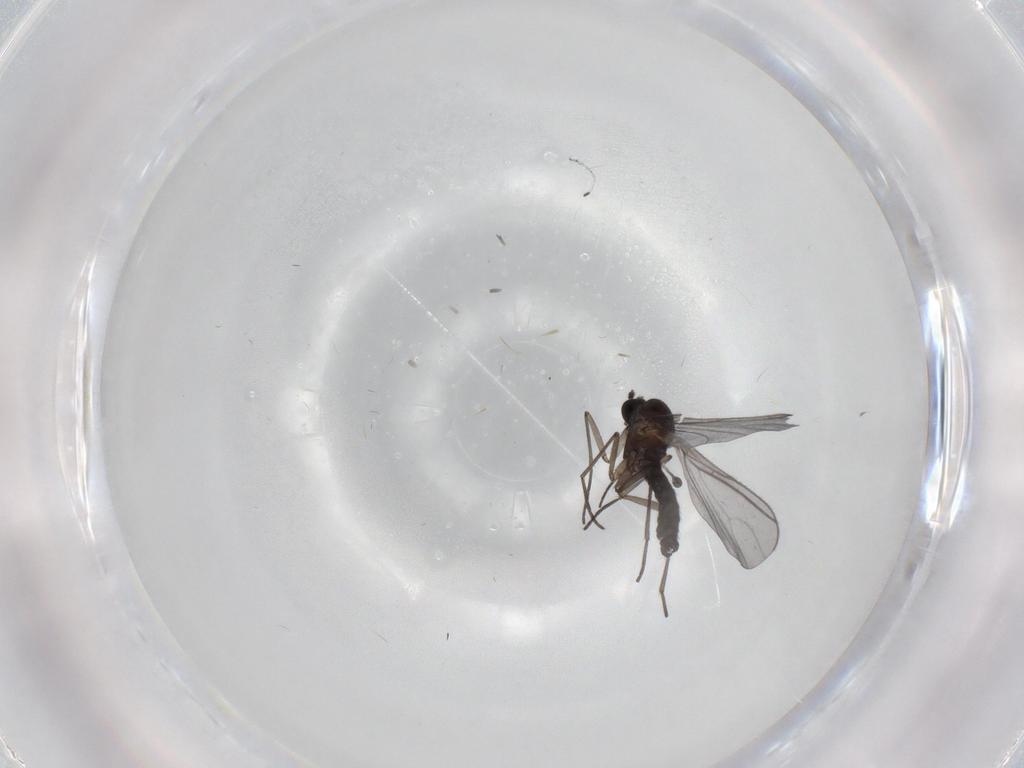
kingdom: Animalia
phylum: Arthropoda
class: Insecta
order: Diptera
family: Sciaridae
